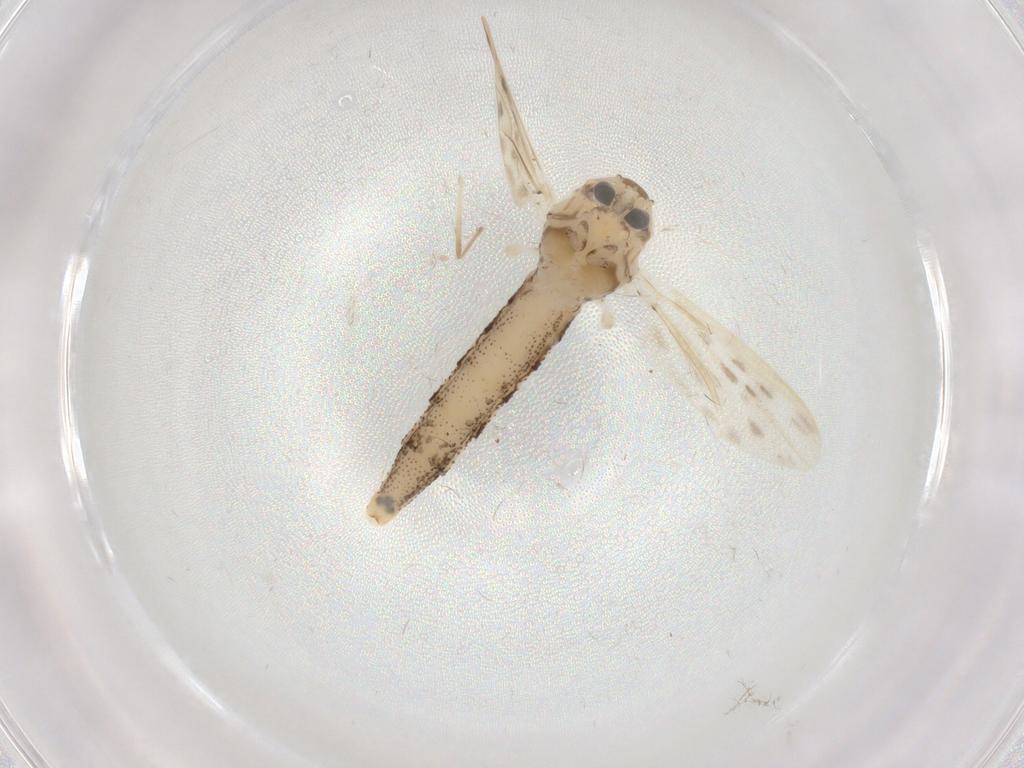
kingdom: Animalia
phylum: Arthropoda
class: Insecta
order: Diptera
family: Chaoboridae
